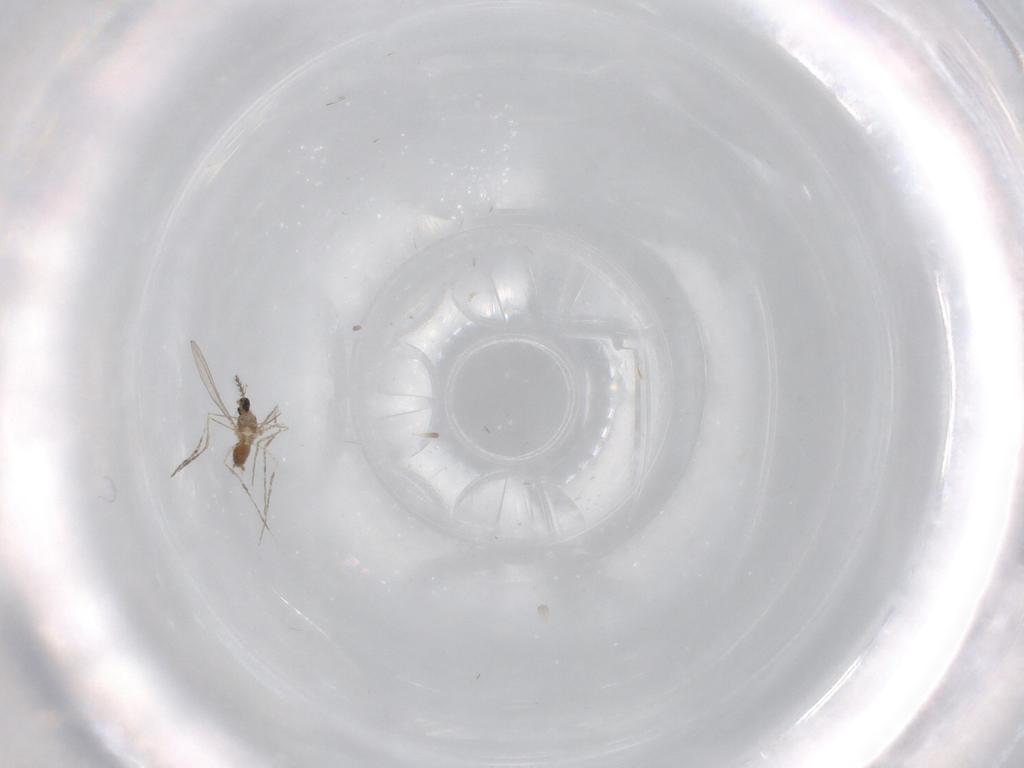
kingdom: Animalia
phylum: Arthropoda
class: Insecta
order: Diptera
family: Cecidomyiidae
